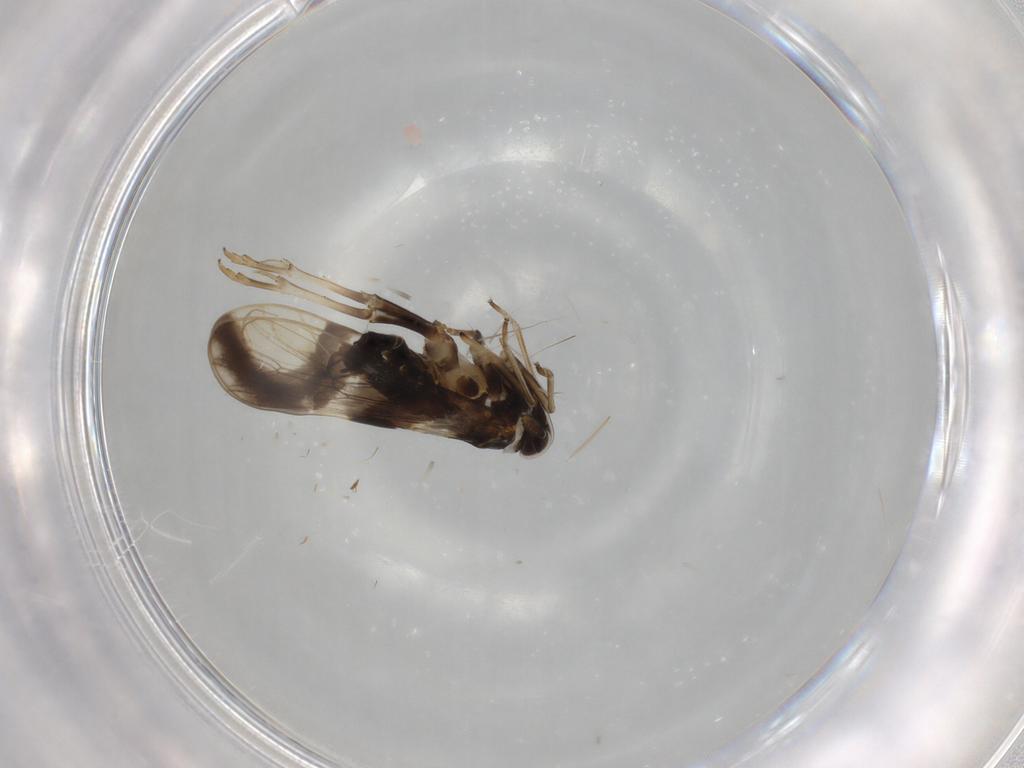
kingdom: Animalia
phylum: Arthropoda
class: Insecta
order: Hemiptera
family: Delphacidae
